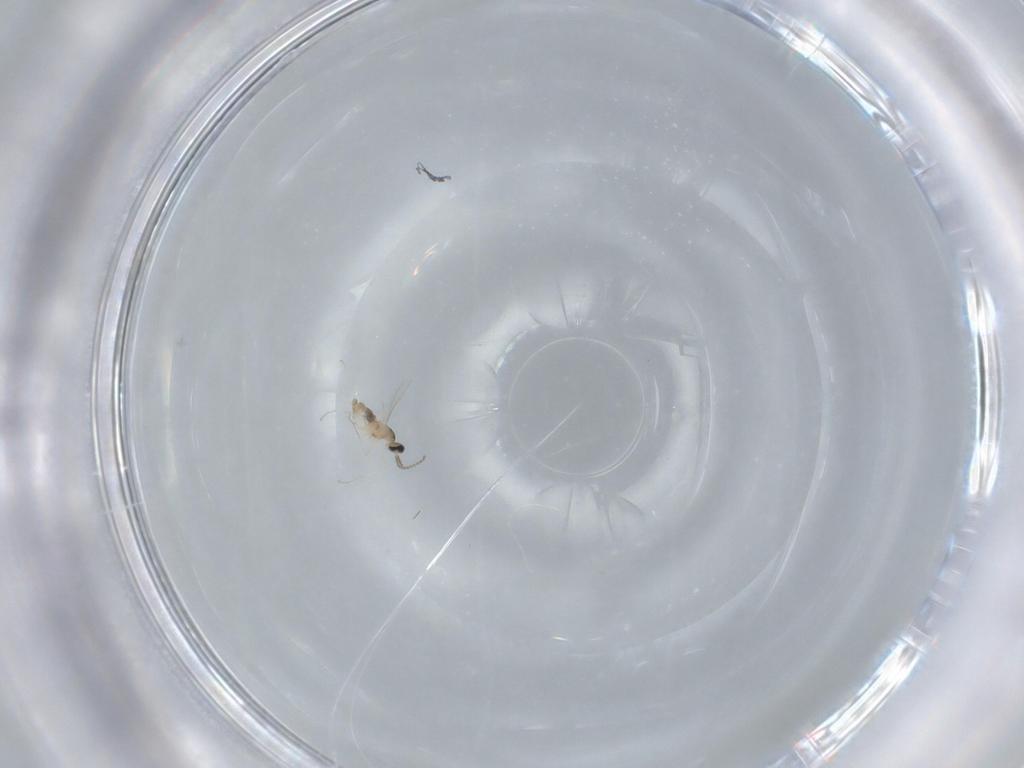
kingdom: Animalia
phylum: Arthropoda
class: Insecta
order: Diptera
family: Cecidomyiidae
